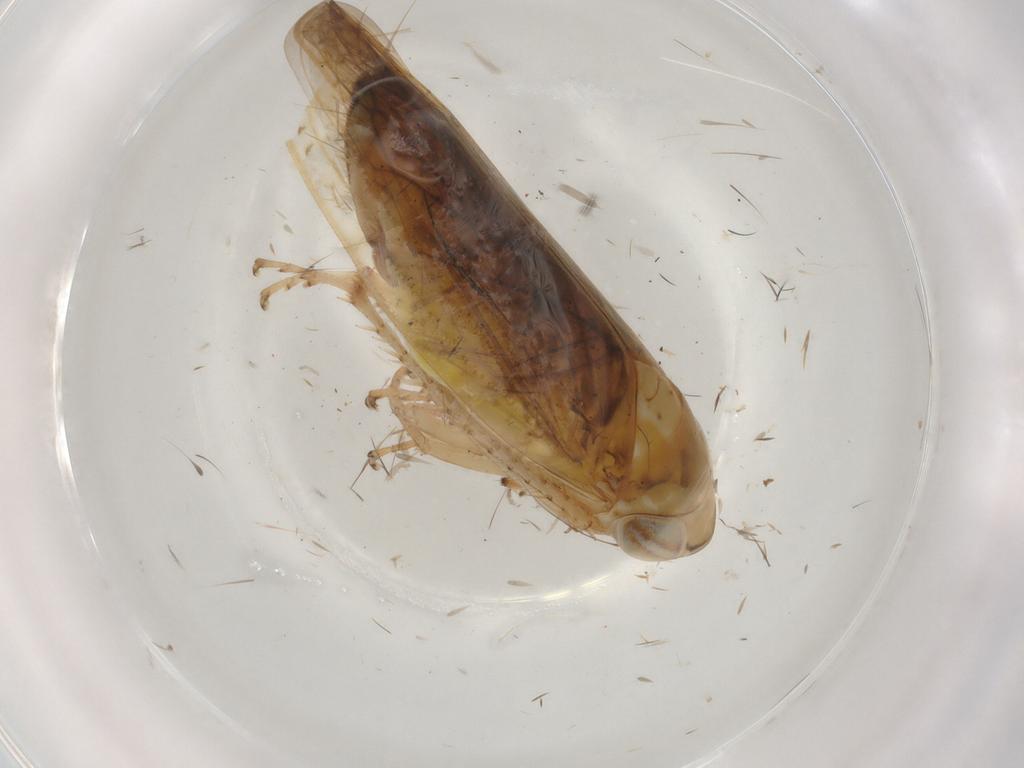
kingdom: Animalia
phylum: Arthropoda
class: Insecta
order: Hemiptera
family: Cicadellidae
